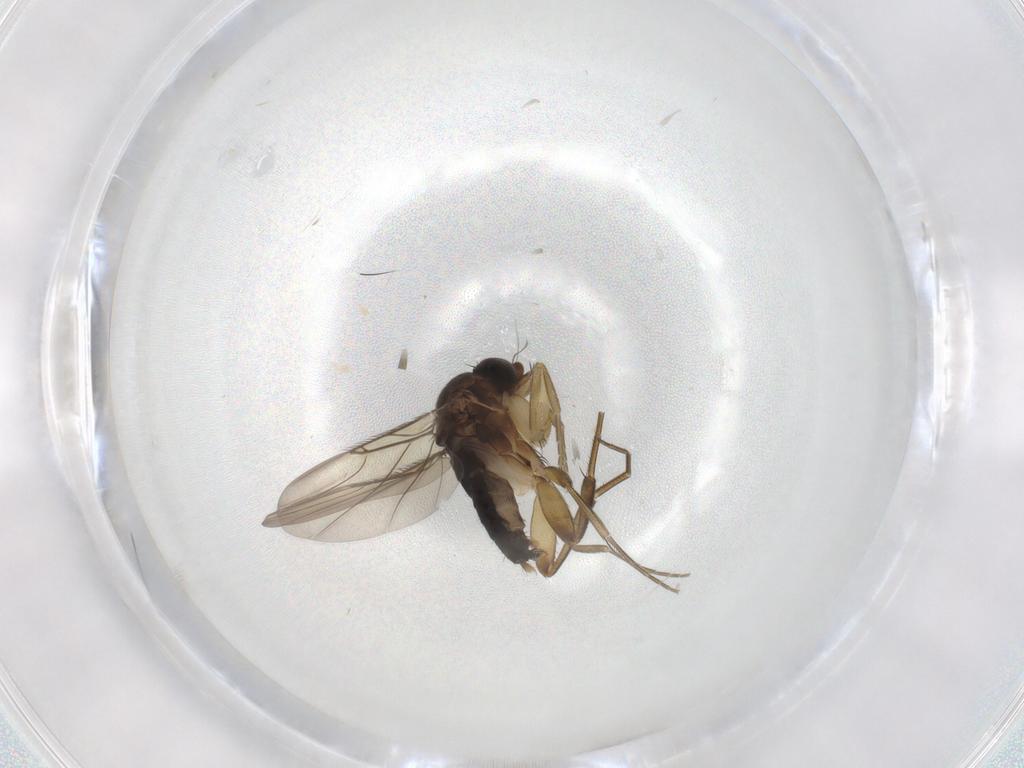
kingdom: Animalia
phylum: Arthropoda
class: Insecta
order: Diptera
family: Phoridae
